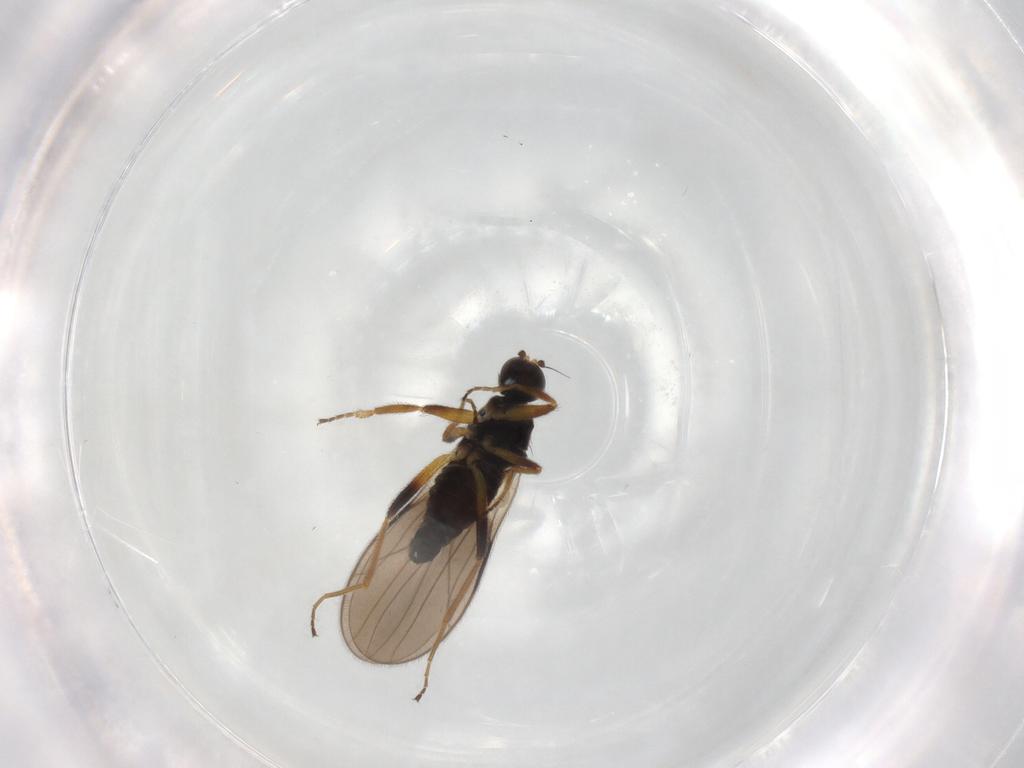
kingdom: Animalia
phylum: Arthropoda
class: Insecta
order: Diptera
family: Hybotidae
